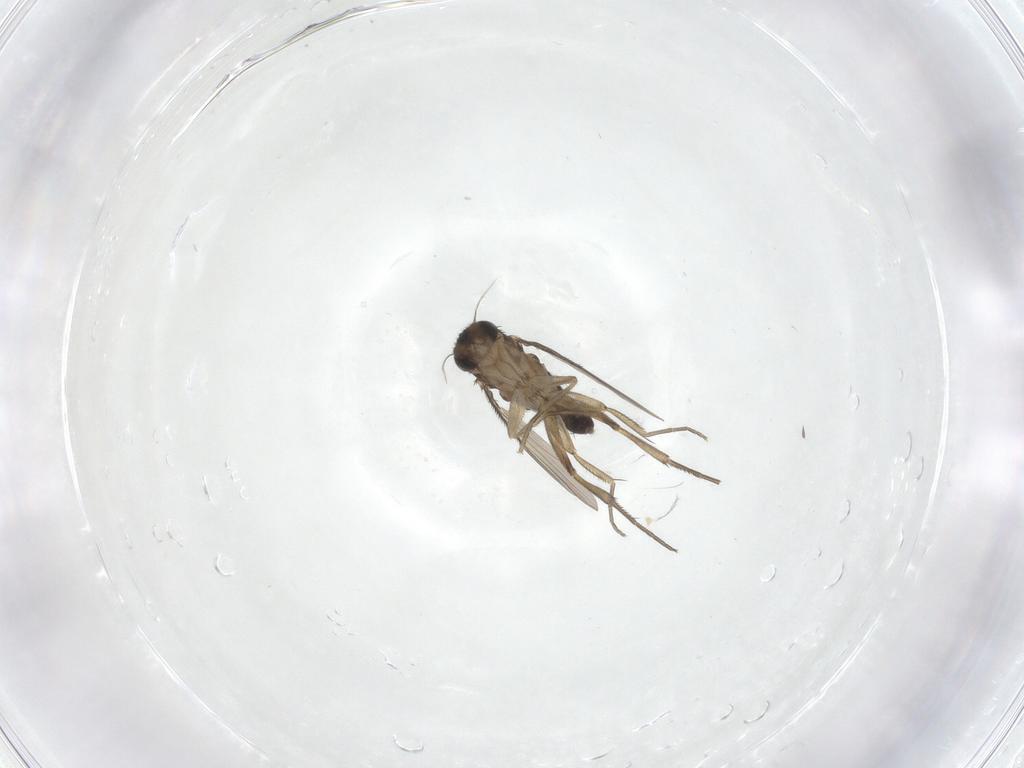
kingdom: Animalia
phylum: Arthropoda
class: Insecta
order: Diptera
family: Phoridae
